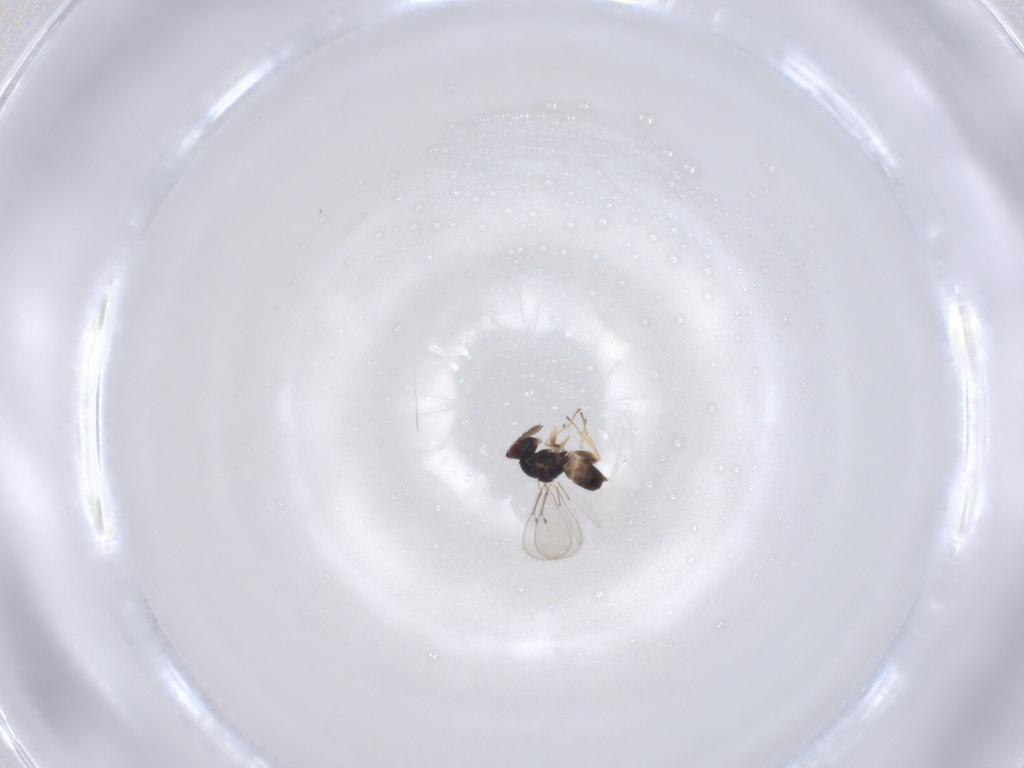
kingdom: Animalia
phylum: Arthropoda
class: Insecta
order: Hymenoptera
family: Eulophidae
